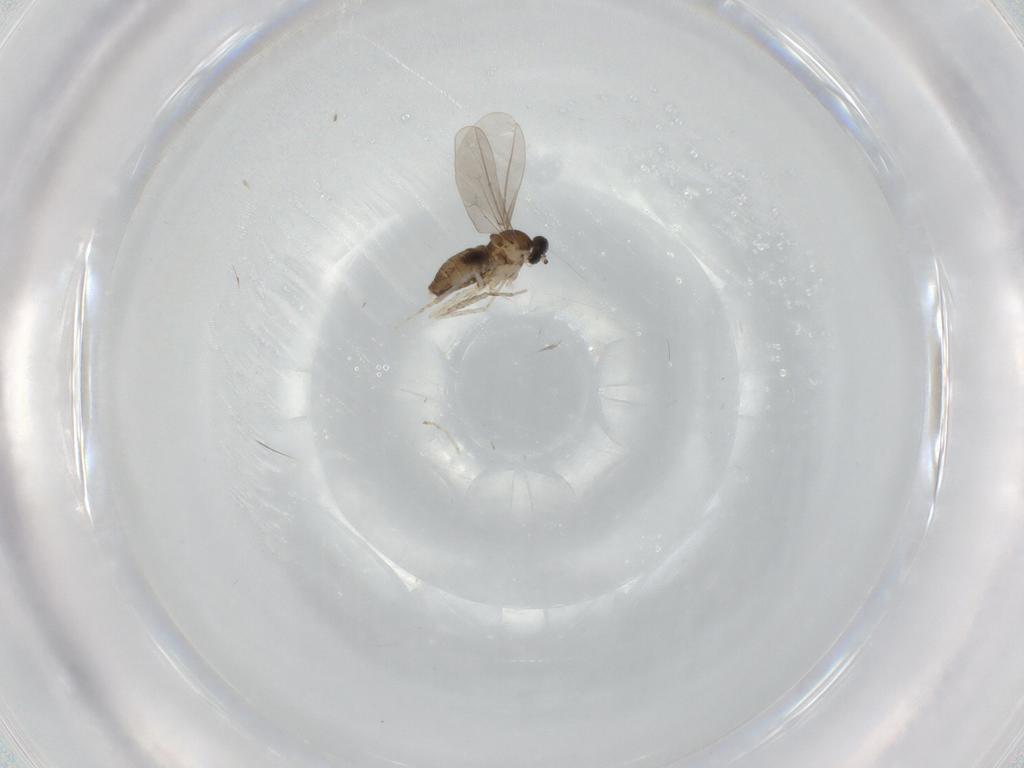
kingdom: Animalia
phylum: Arthropoda
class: Insecta
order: Diptera
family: Cecidomyiidae
